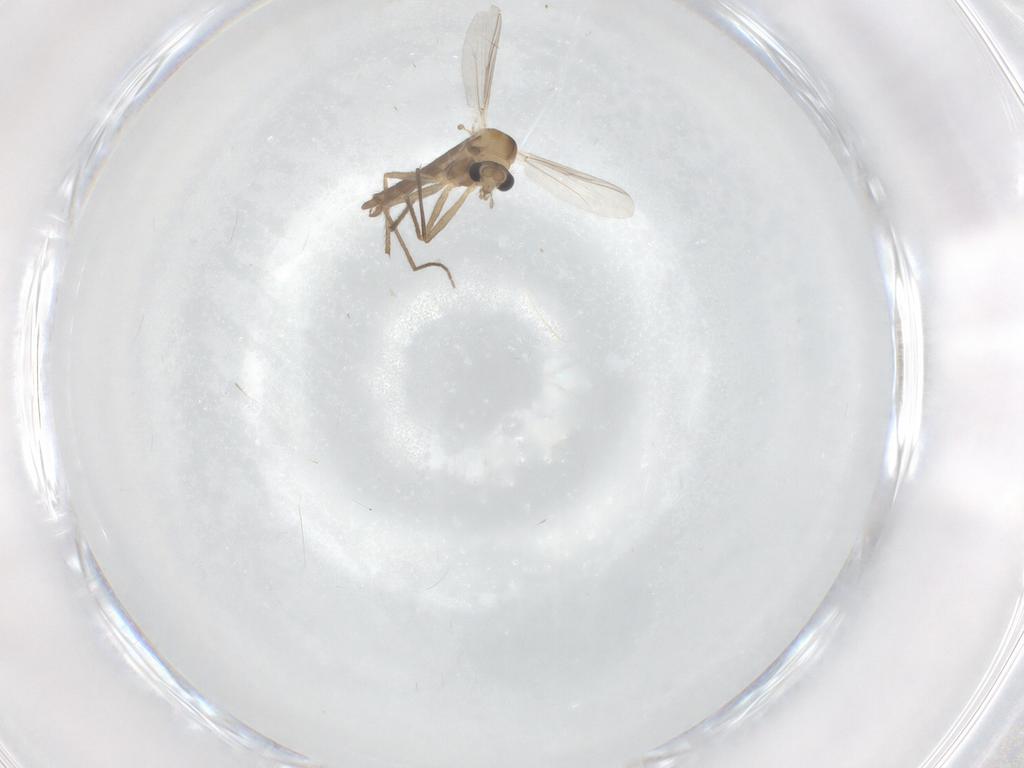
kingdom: Animalia
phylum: Arthropoda
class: Insecta
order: Diptera
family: Chironomidae
